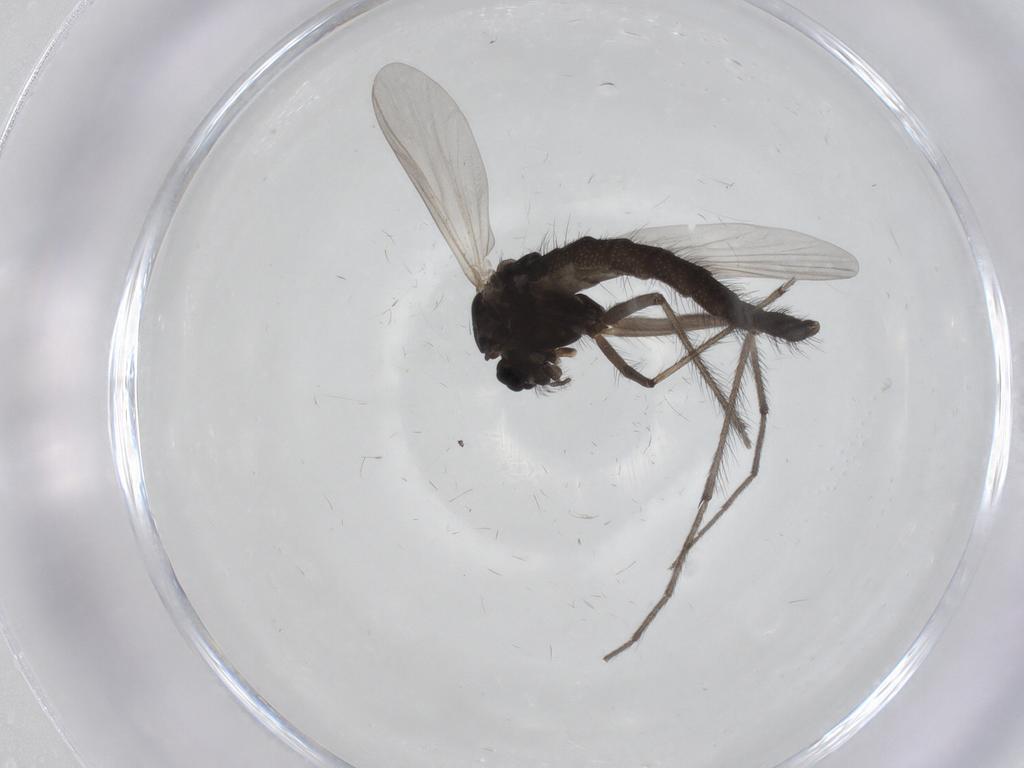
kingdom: Animalia
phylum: Arthropoda
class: Insecta
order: Diptera
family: Chironomidae
